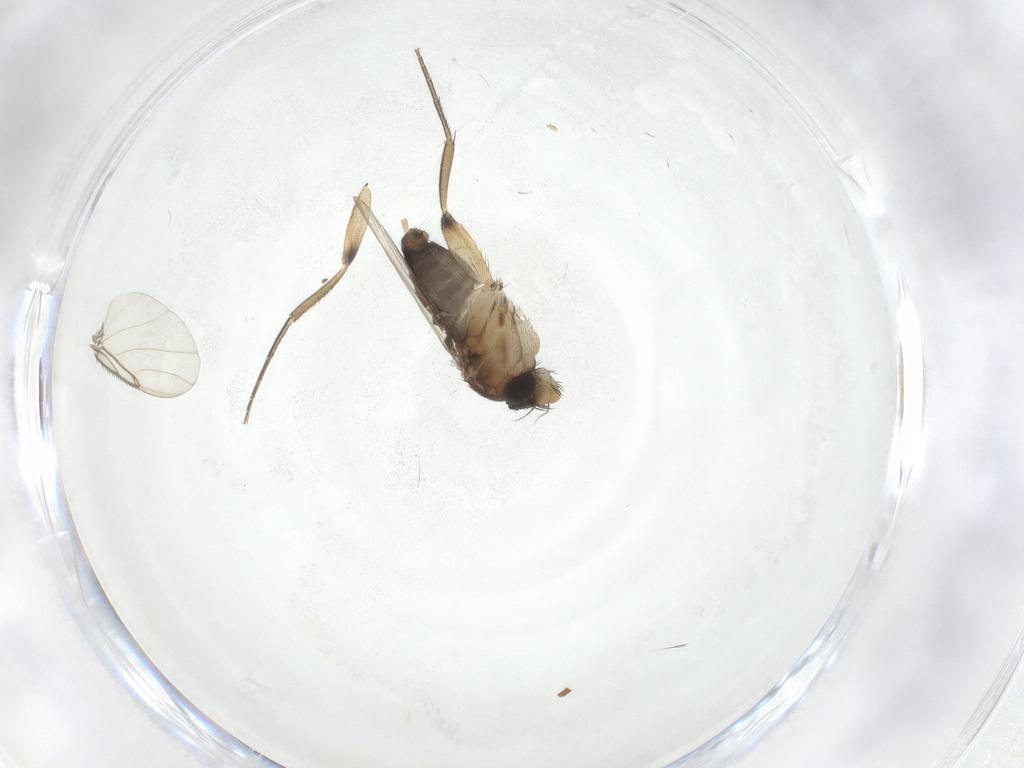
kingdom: Animalia
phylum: Arthropoda
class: Insecta
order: Diptera
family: Phoridae
